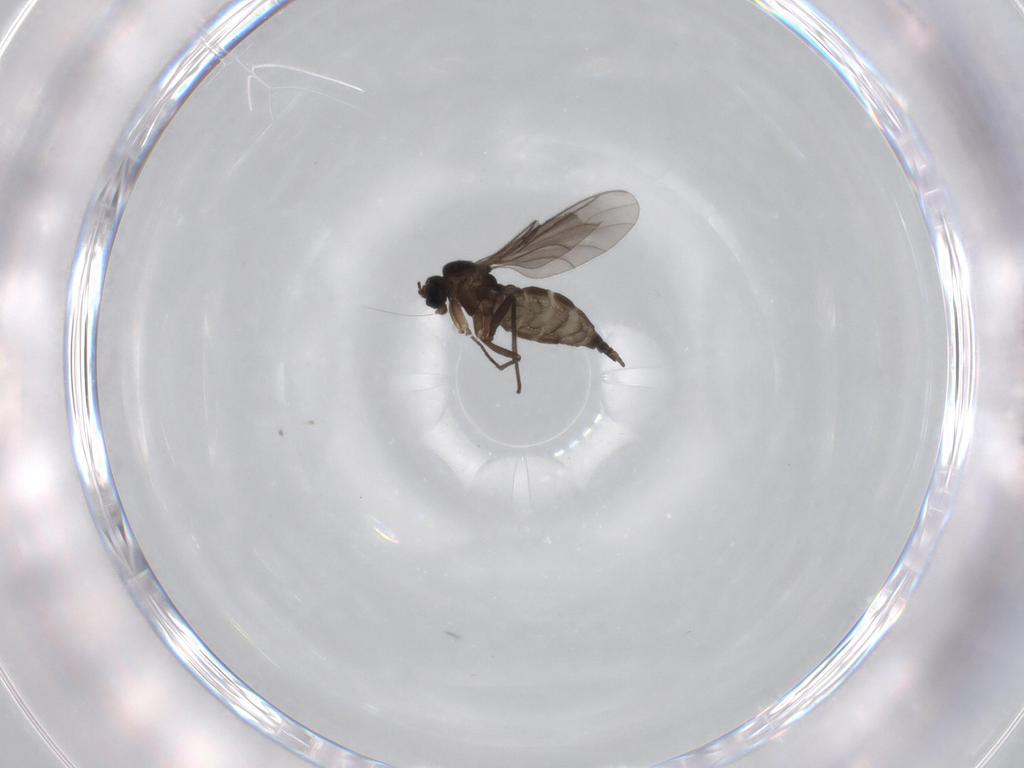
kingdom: Animalia
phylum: Arthropoda
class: Insecta
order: Diptera
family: Sciaridae
